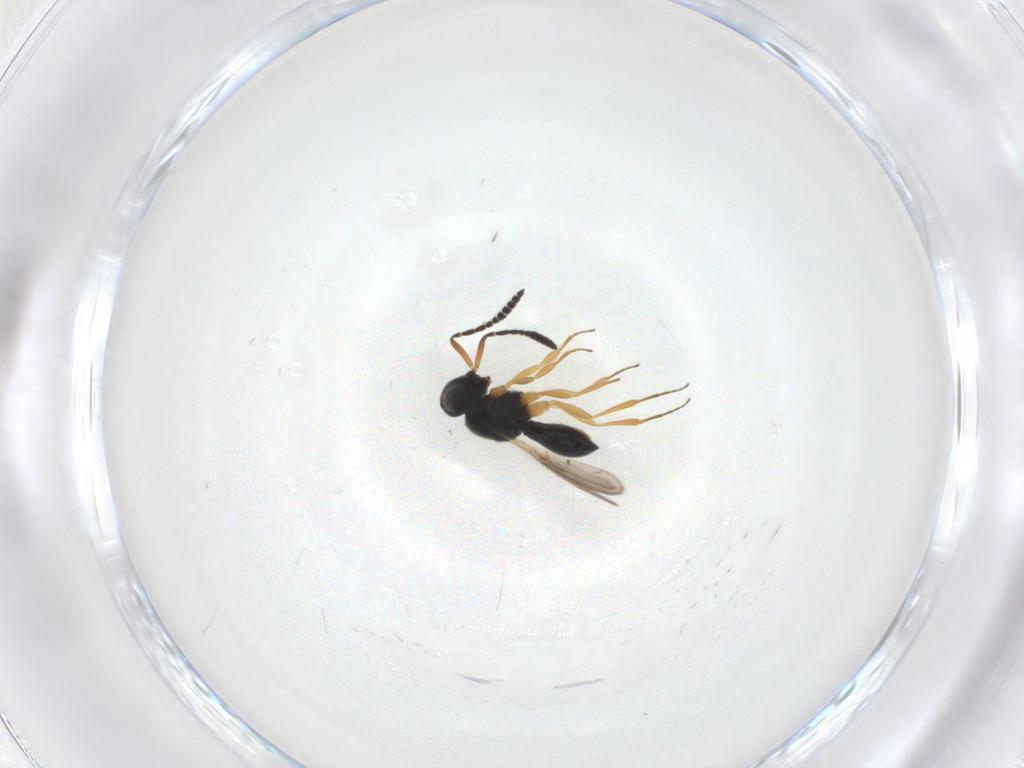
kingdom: Animalia
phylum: Arthropoda
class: Insecta
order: Hymenoptera
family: Scelionidae
